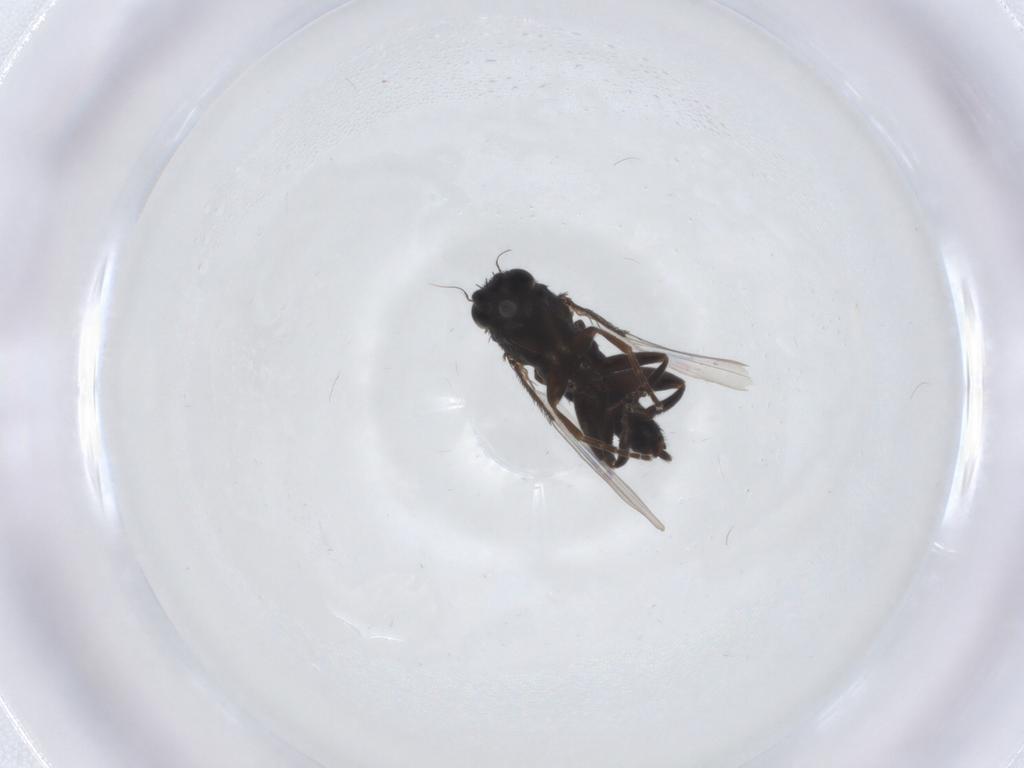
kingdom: Animalia
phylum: Arthropoda
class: Insecta
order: Diptera
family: Phoridae
